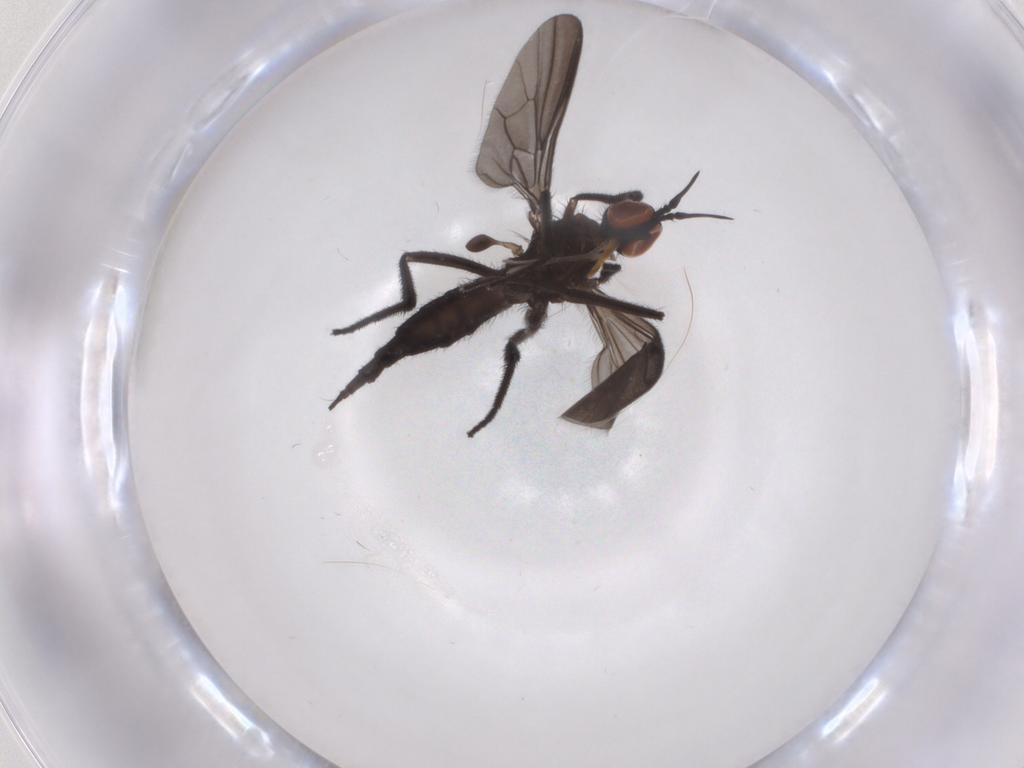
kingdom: Animalia
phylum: Arthropoda
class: Insecta
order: Diptera
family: Empididae
